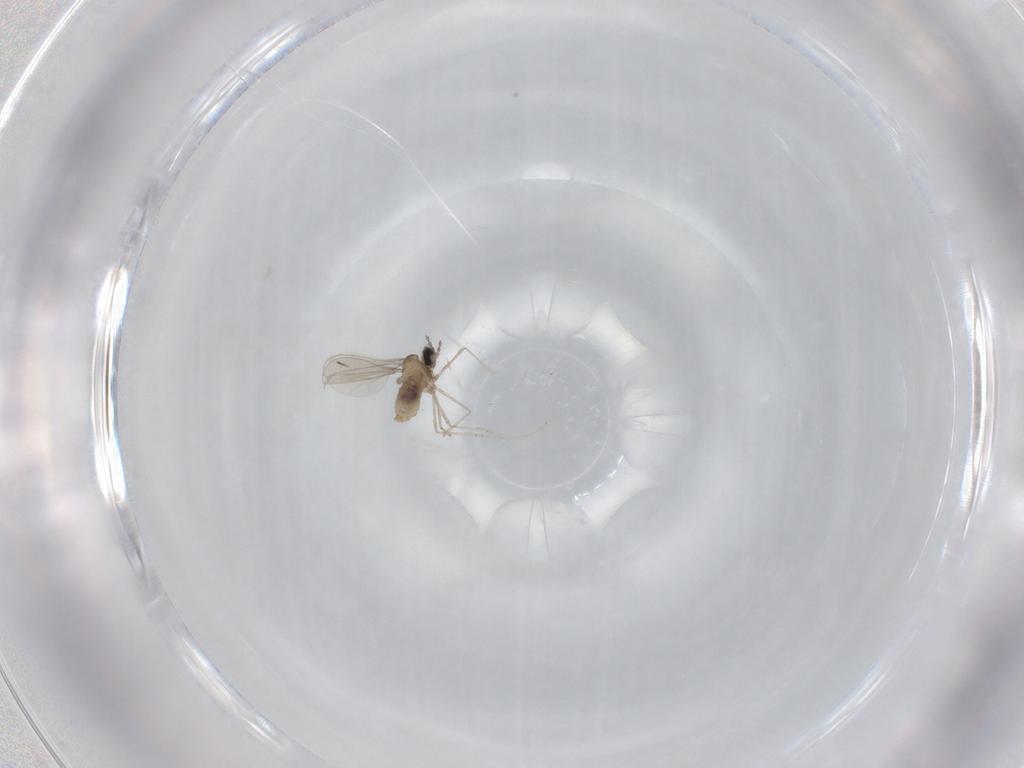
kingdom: Animalia
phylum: Arthropoda
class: Insecta
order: Diptera
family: Cecidomyiidae
